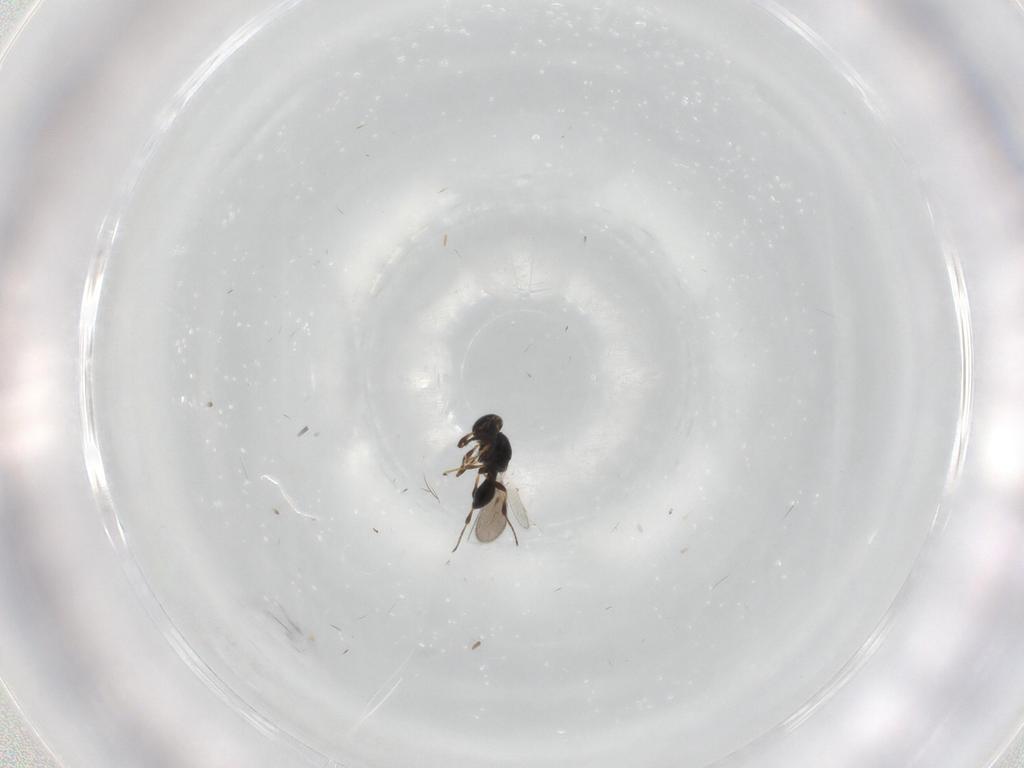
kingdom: Animalia
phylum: Arthropoda
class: Insecta
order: Hymenoptera
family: Platygastridae
